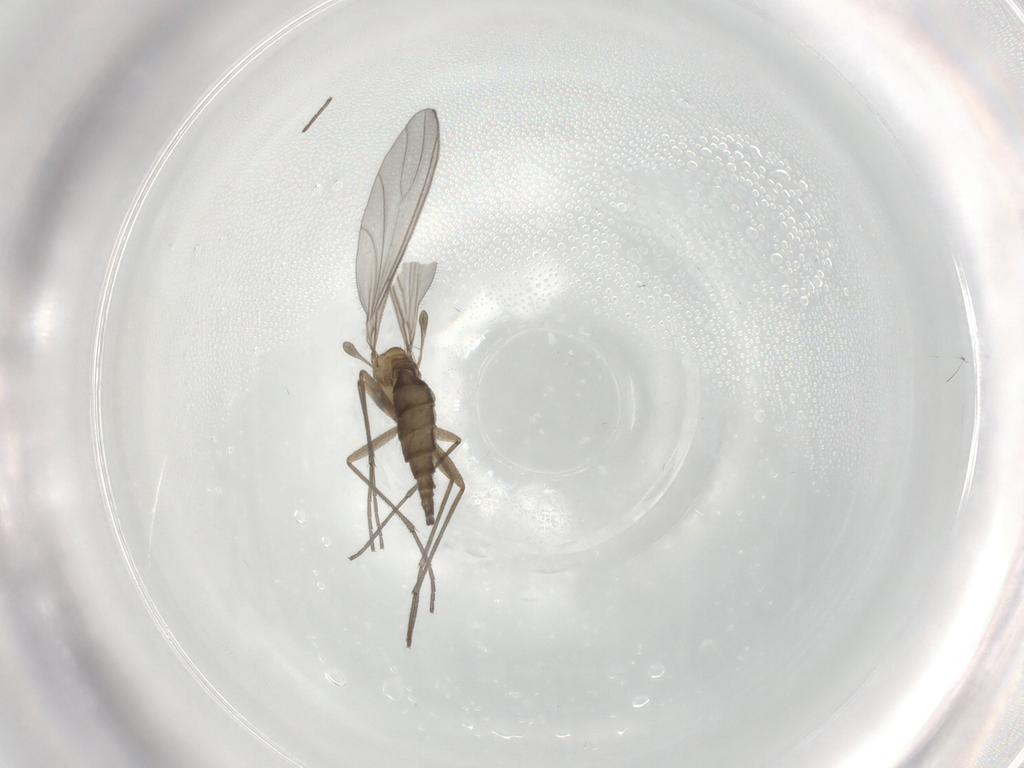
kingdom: Animalia
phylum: Arthropoda
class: Insecta
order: Diptera
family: Sciaridae
